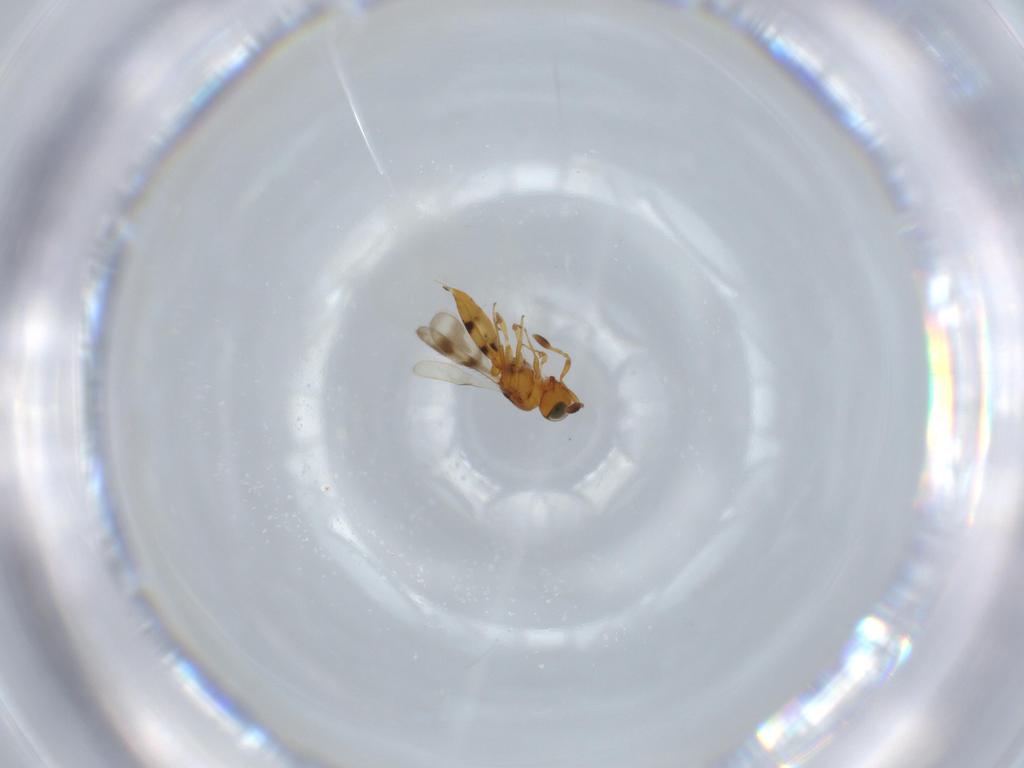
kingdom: Animalia
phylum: Arthropoda
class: Insecta
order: Hymenoptera
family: Scelionidae
